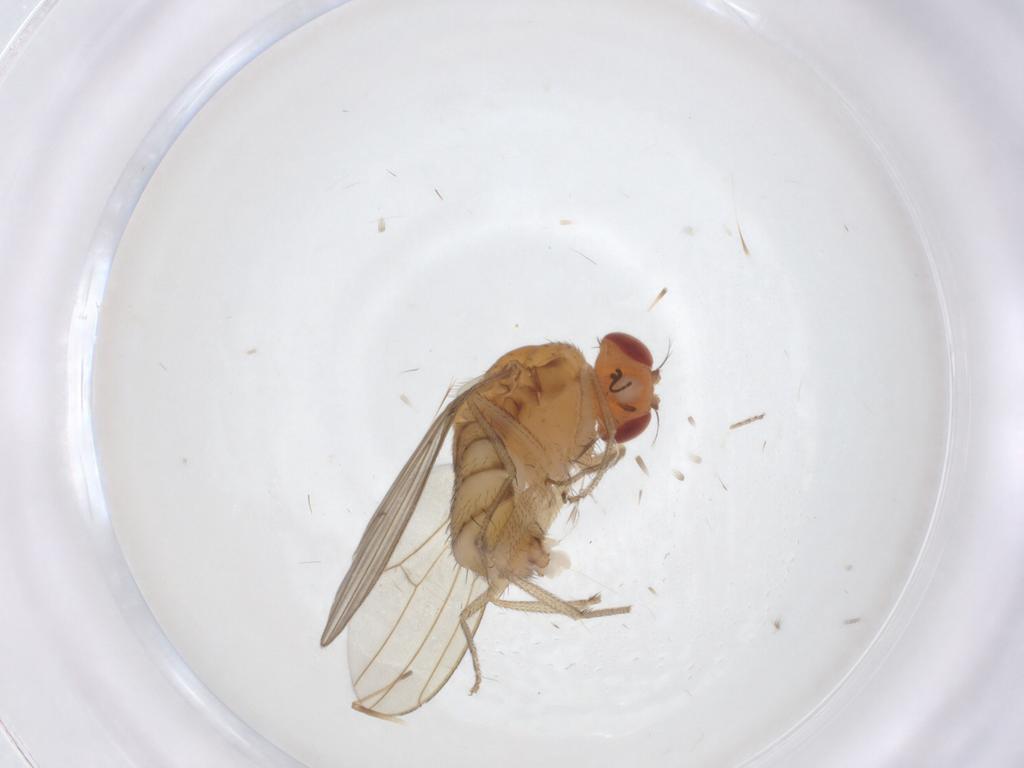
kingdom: Animalia
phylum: Arthropoda
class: Insecta
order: Diptera
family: Drosophilidae
